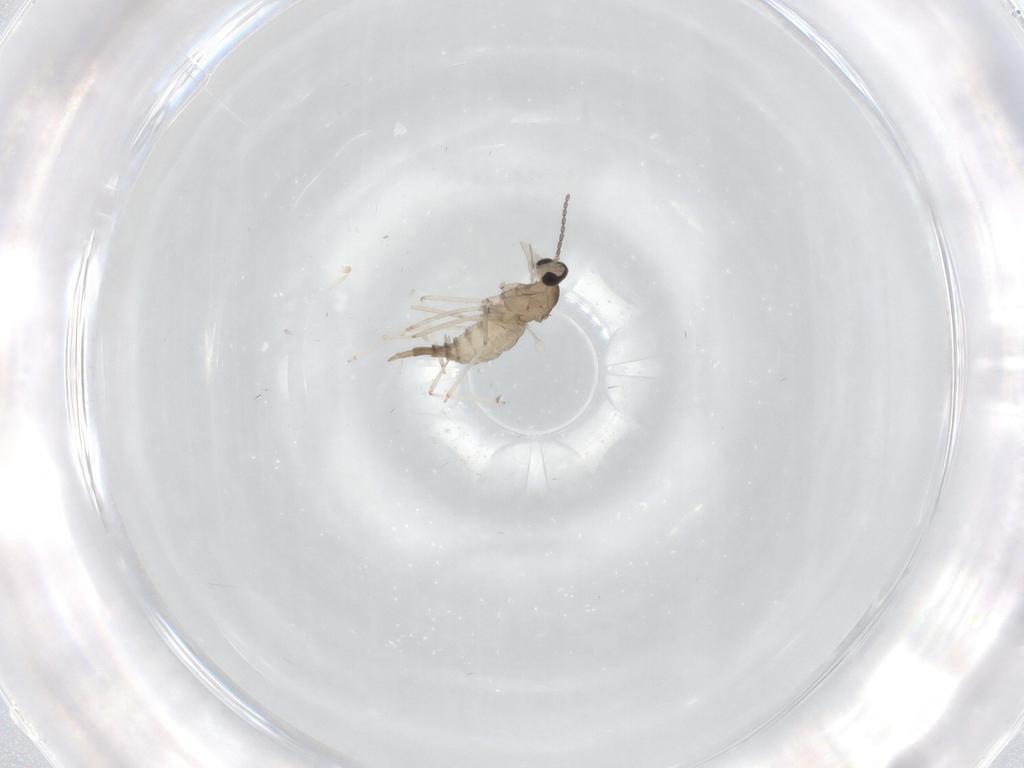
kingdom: Animalia
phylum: Arthropoda
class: Insecta
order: Diptera
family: Cecidomyiidae
